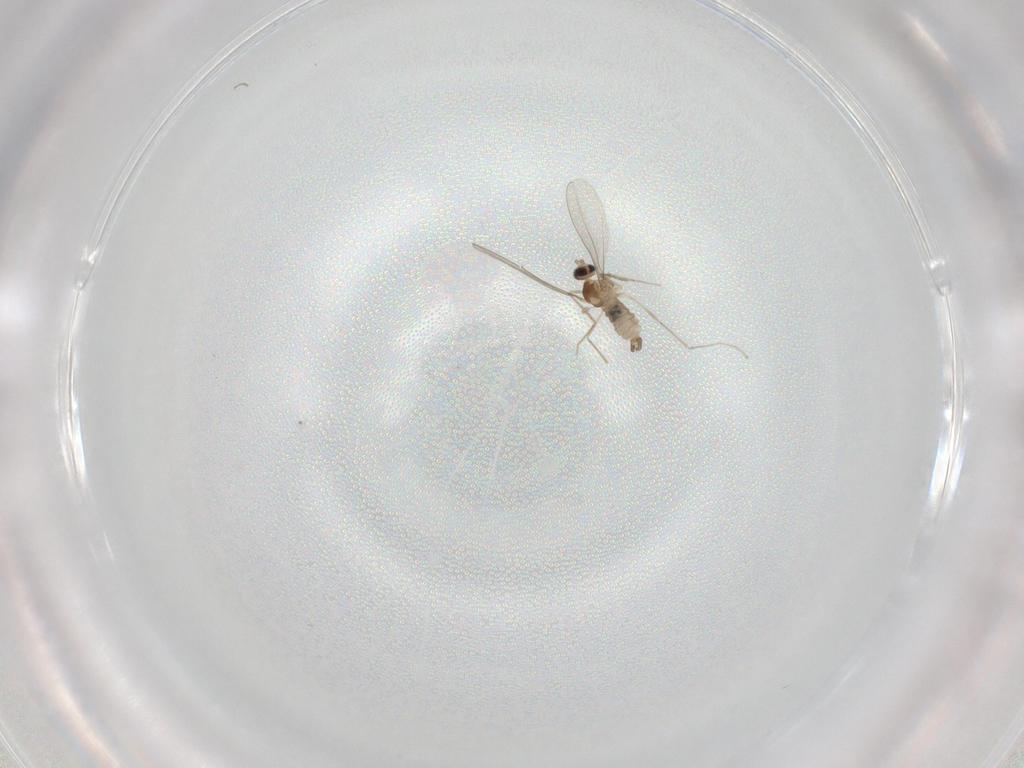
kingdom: Animalia
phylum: Arthropoda
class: Insecta
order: Diptera
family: Cecidomyiidae
